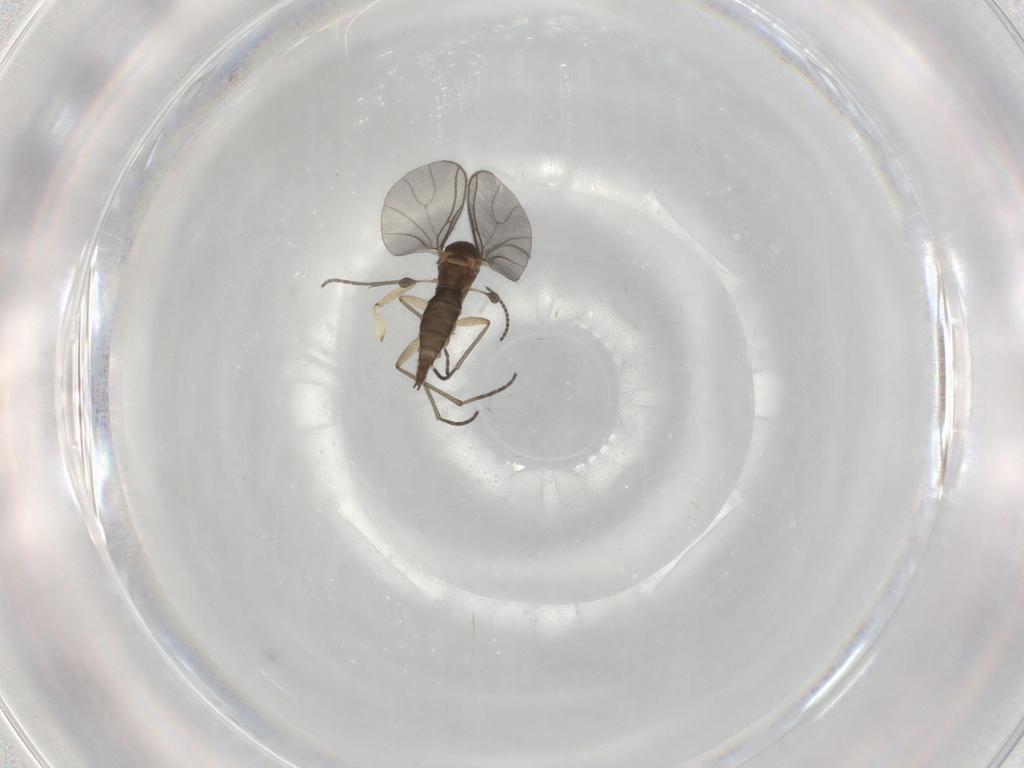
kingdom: Animalia
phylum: Arthropoda
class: Insecta
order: Diptera
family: Sciaridae
